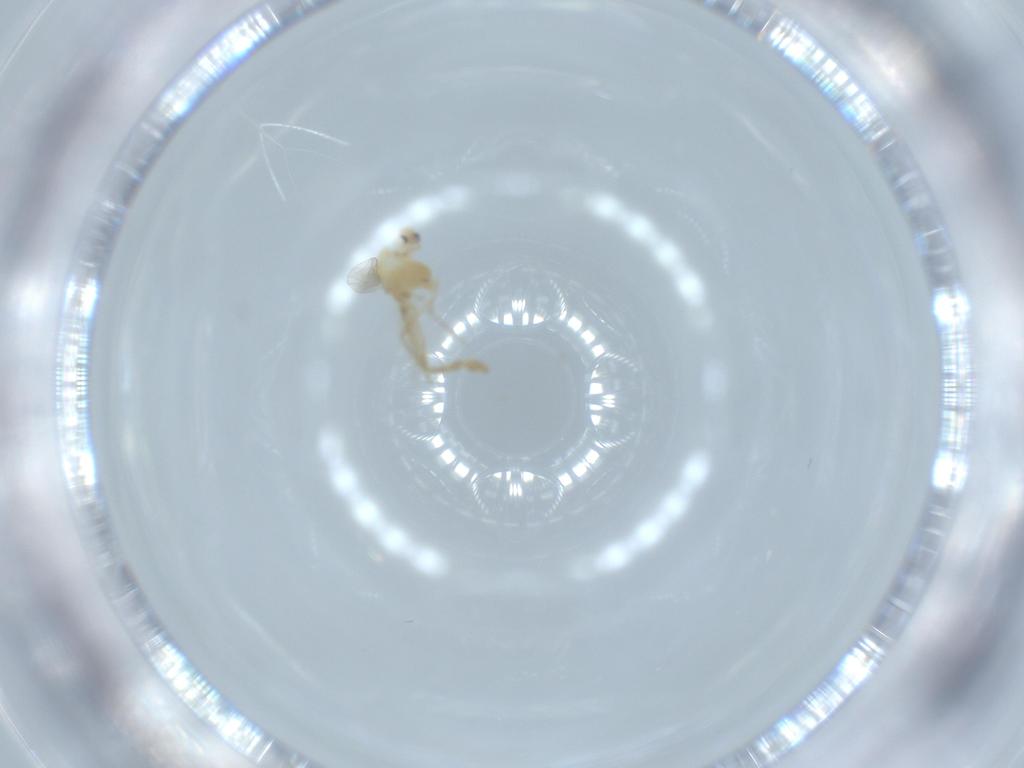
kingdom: Animalia
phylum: Arthropoda
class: Insecta
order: Diptera
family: Chironomidae
